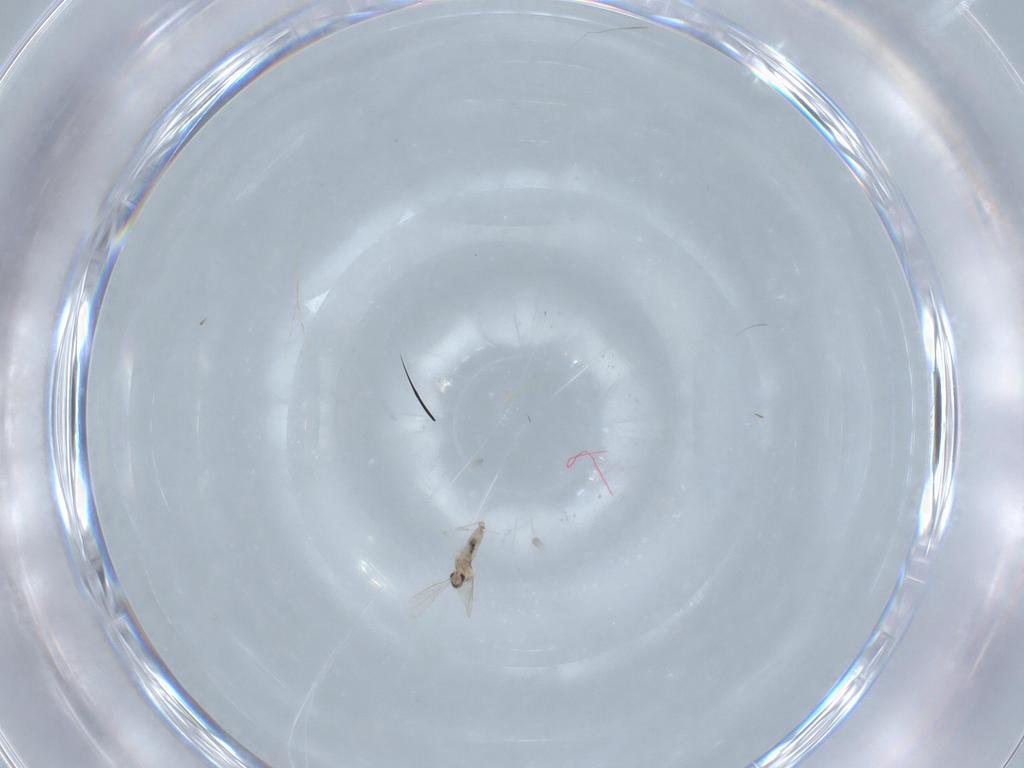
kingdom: Animalia
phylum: Arthropoda
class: Insecta
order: Diptera
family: Cecidomyiidae
